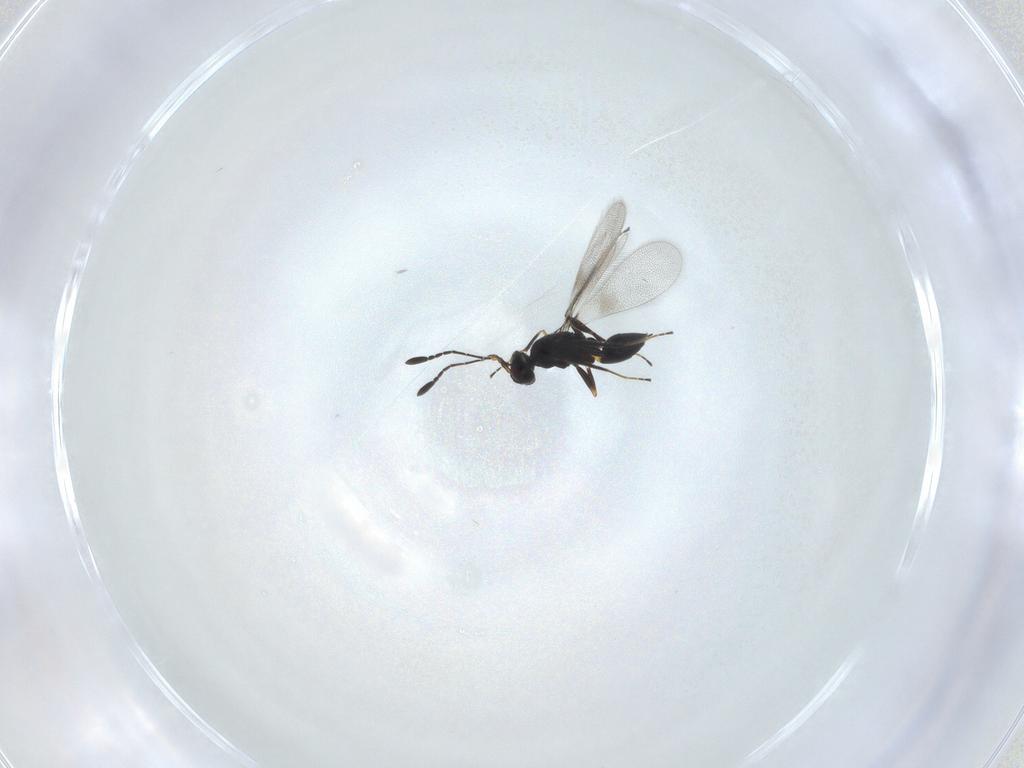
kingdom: Animalia
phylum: Arthropoda
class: Insecta
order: Hymenoptera
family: Mymaridae
